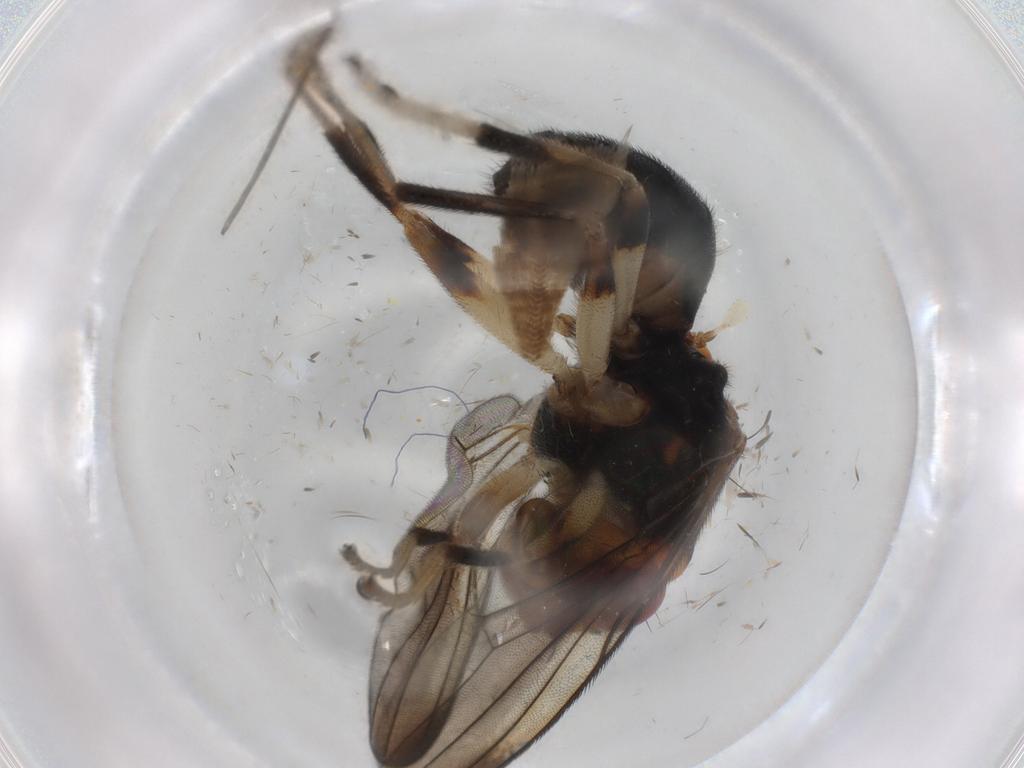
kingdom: Animalia
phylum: Arthropoda
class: Insecta
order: Diptera
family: Psilidae
